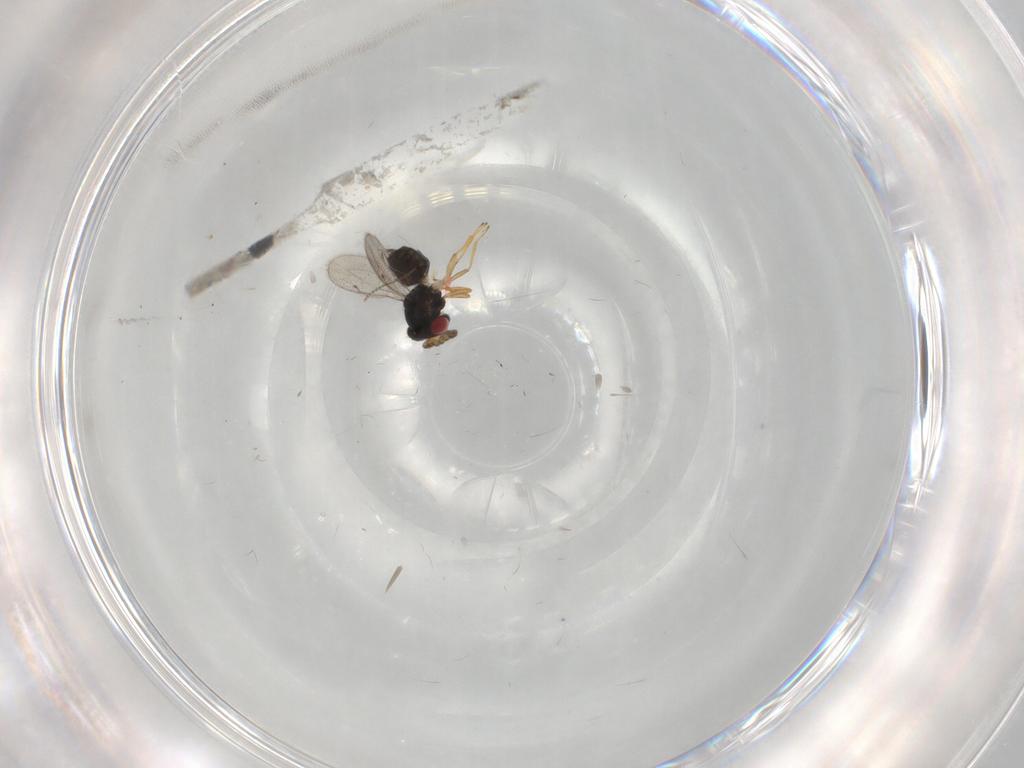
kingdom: Animalia
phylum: Arthropoda
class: Insecta
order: Hymenoptera
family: Eulophidae
